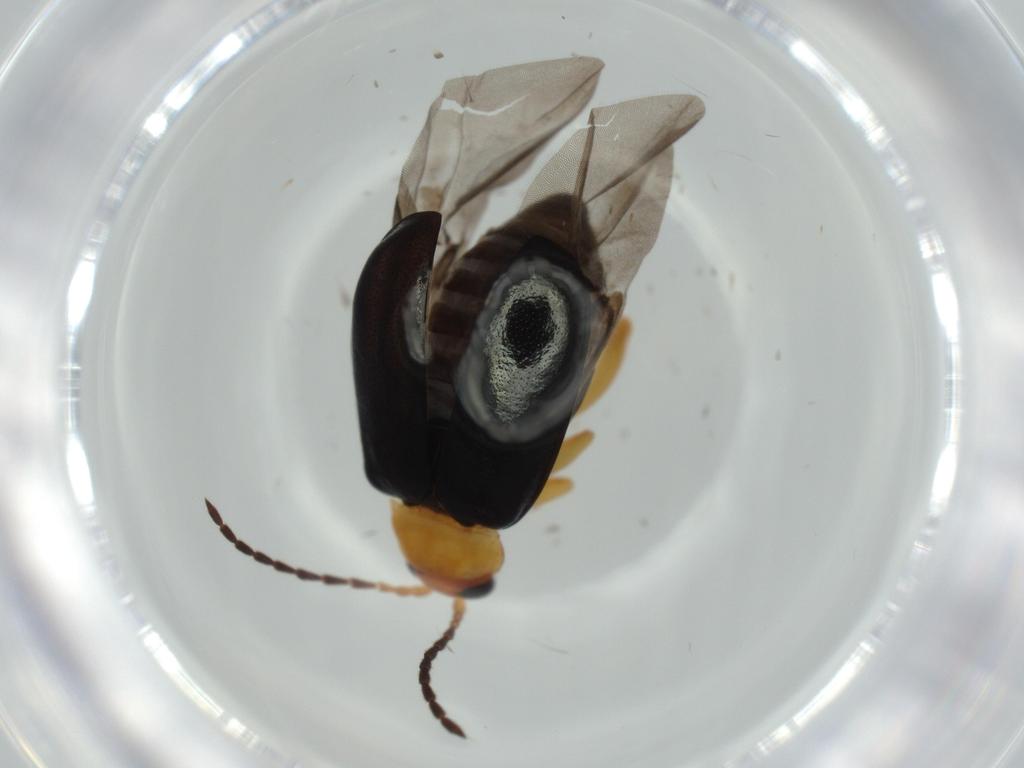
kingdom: Animalia
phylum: Arthropoda
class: Insecta
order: Coleoptera
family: Chrysomelidae
